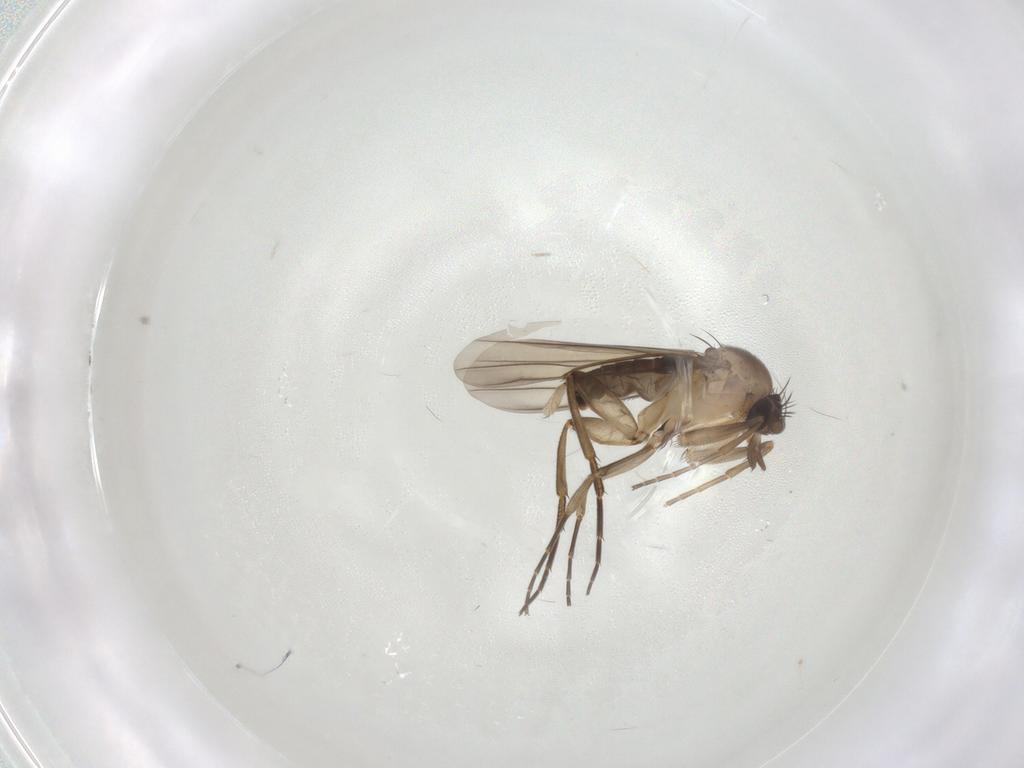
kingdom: Animalia
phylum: Arthropoda
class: Insecta
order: Diptera
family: Phoridae
